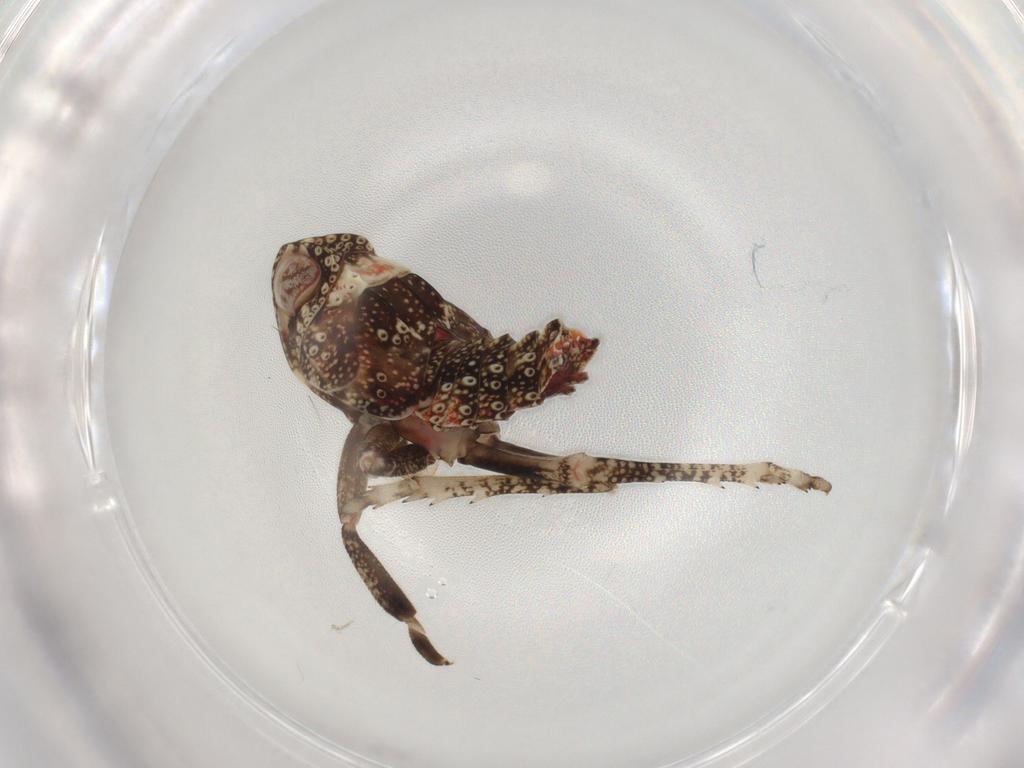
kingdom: Animalia
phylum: Arthropoda
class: Insecta
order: Hemiptera
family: Tropiduchidae
